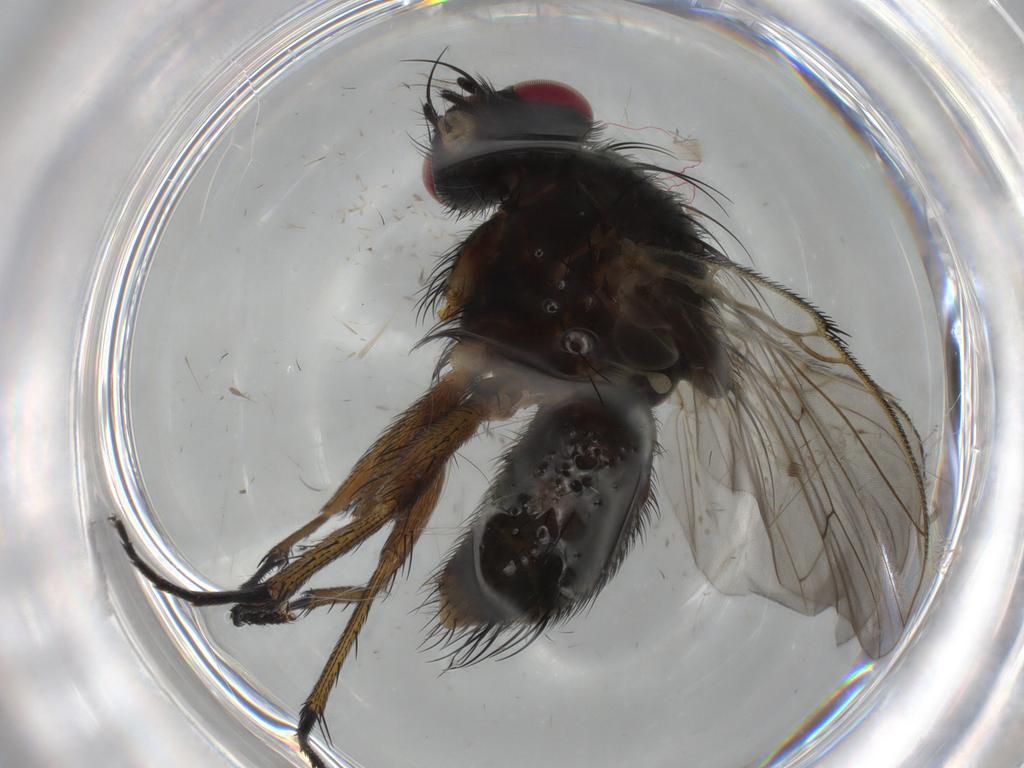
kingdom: Animalia
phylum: Arthropoda
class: Insecta
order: Diptera
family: Muscidae
